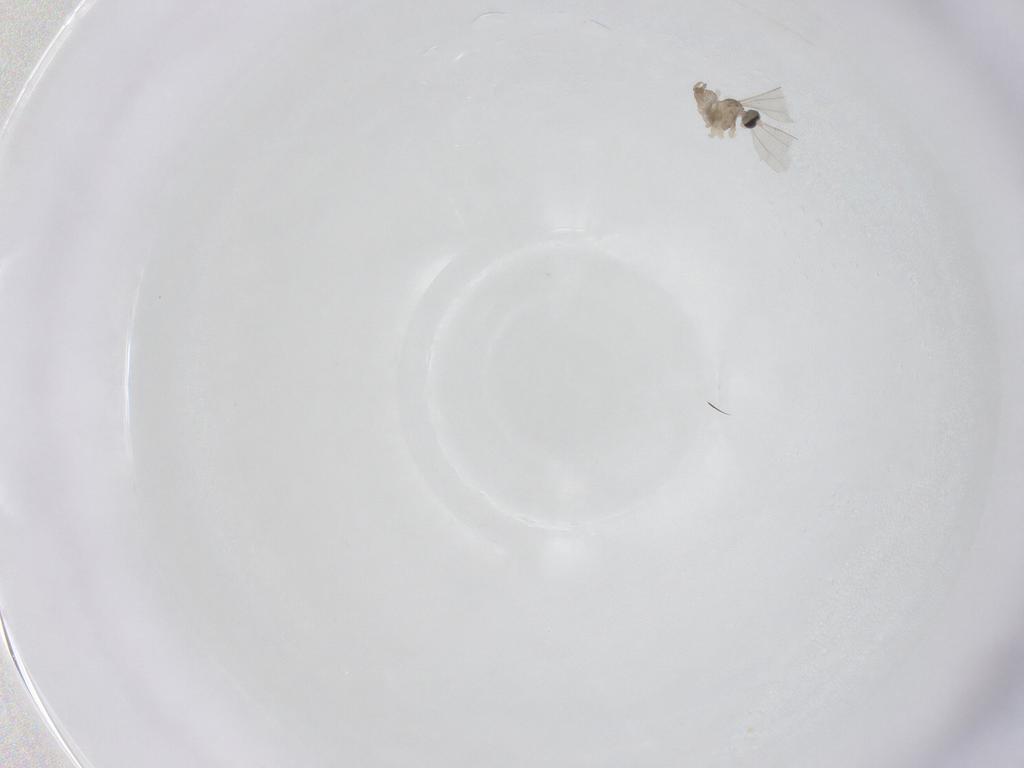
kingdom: Animalia
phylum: Arthropoda
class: Insecta
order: Diptera
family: Cecidomyiidae
